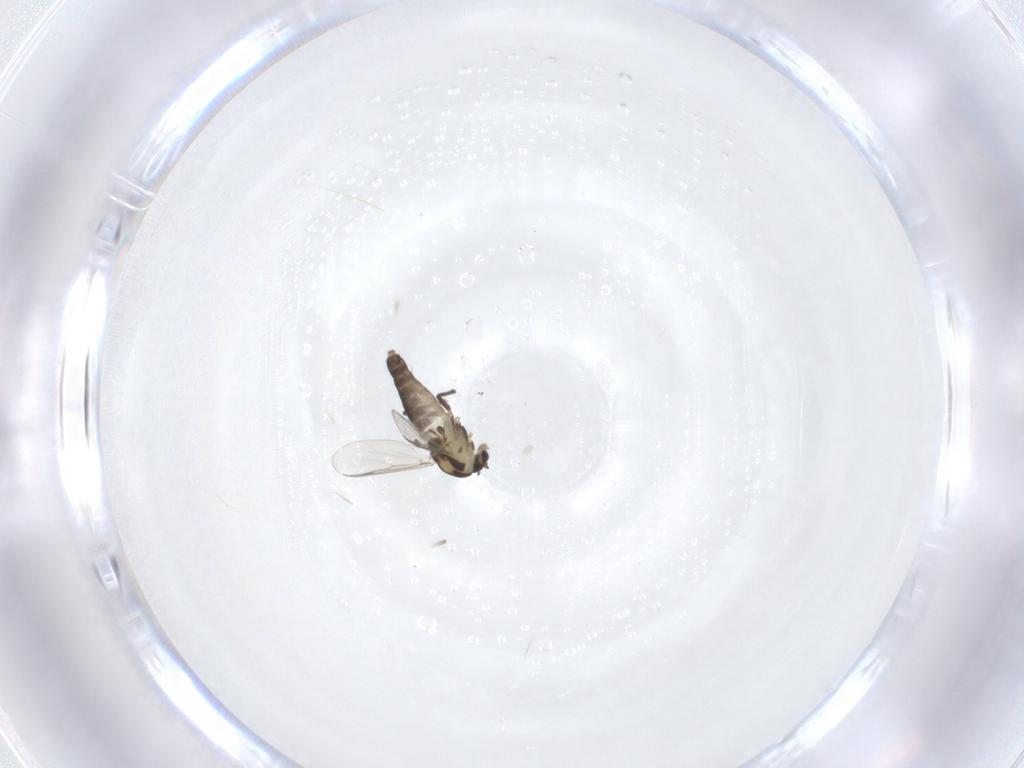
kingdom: Animalia
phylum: Arthropoda
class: Insecta
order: Diptera
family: Chironomidae
